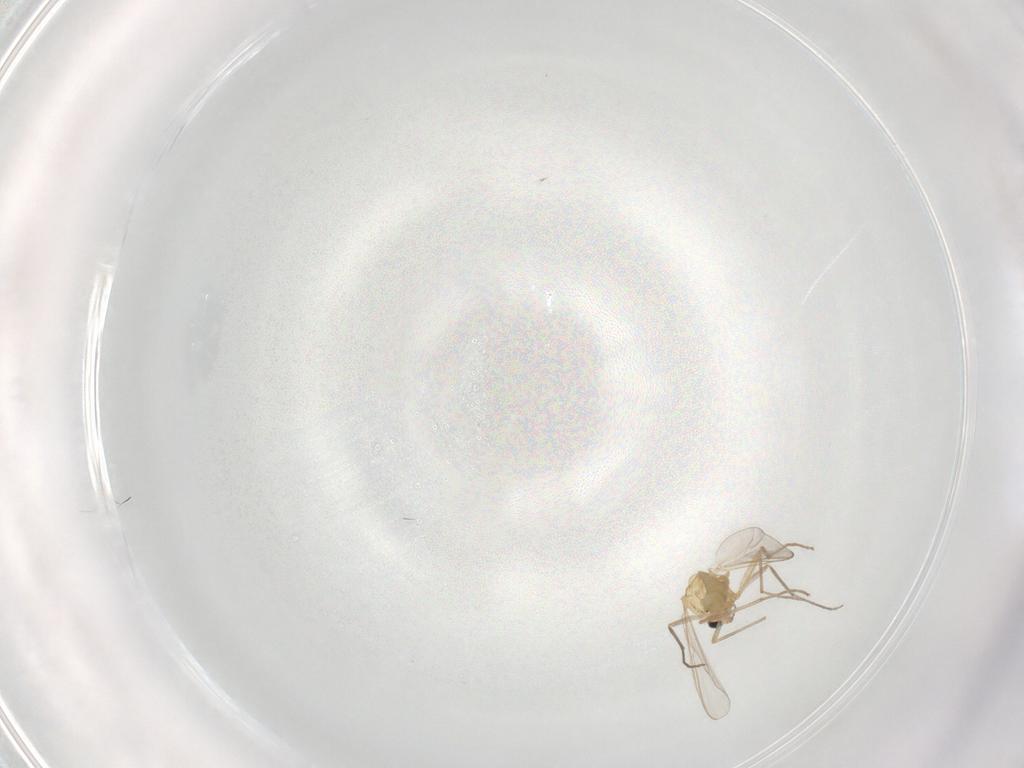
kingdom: Animalia
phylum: Arthropoda
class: Insecta
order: Diptera
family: Chironomidae
